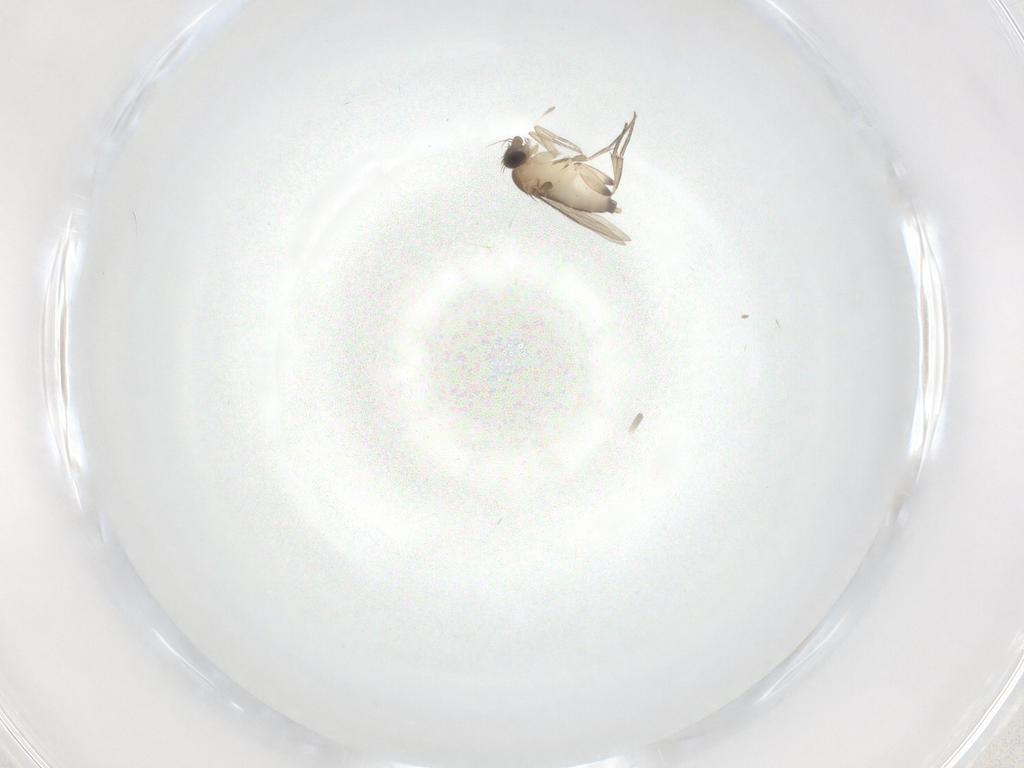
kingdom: Animalia
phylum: Arthropoda
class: Insecta
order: Diptera
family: Phoridae
